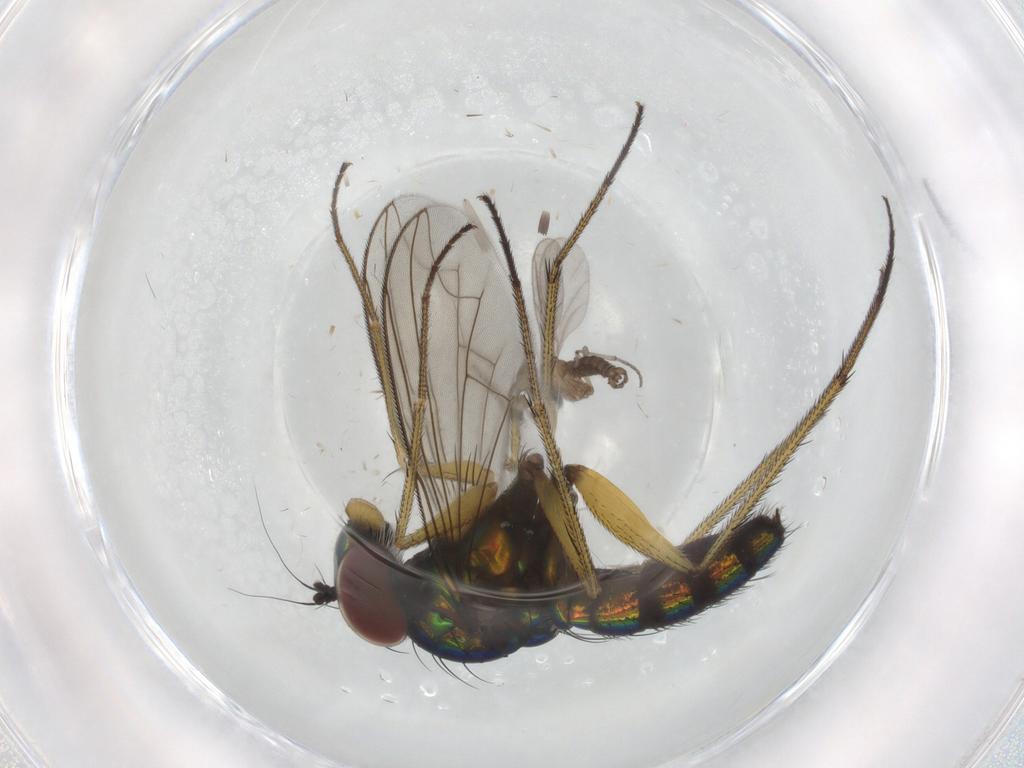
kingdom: Animalia
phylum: Arthropoda
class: Insecta
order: Diptera
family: Dolichopodidae
